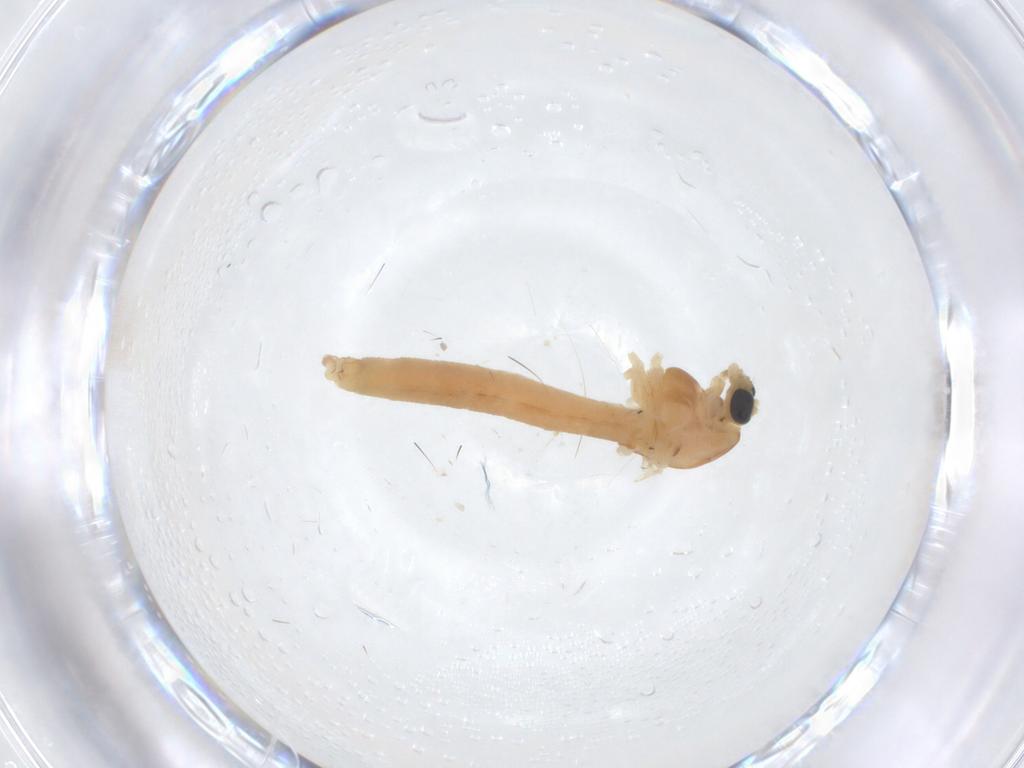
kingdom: Animalia
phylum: Arthropoda
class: Insecta
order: Diptera
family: Chironomidae
